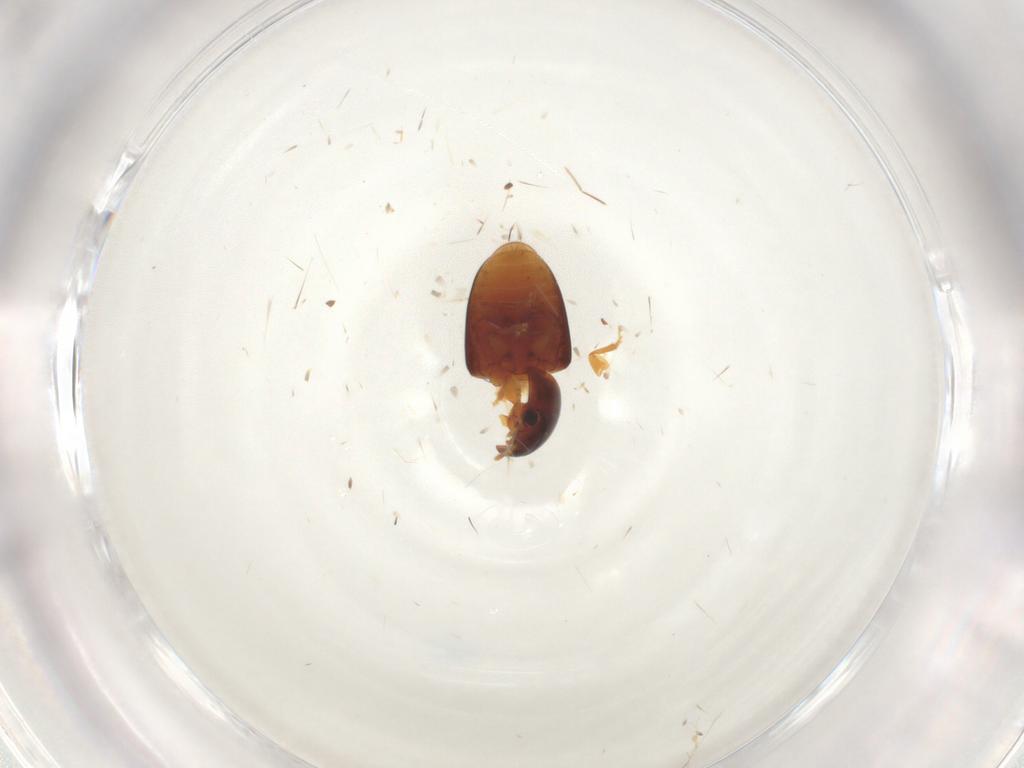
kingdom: Animalia
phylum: Arthropoda
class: Insecta
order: Coleoptera
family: Phalacridae
